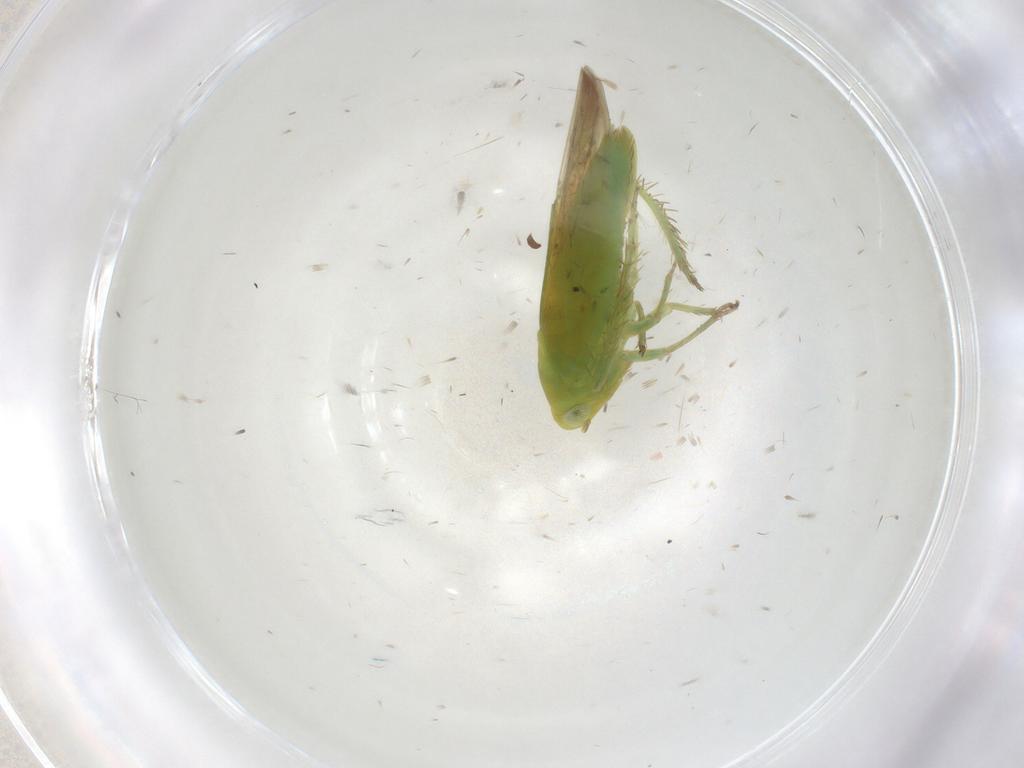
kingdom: Animalia
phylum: Arthropoda
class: Insecta
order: Hemiptera
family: Cicadellidae
